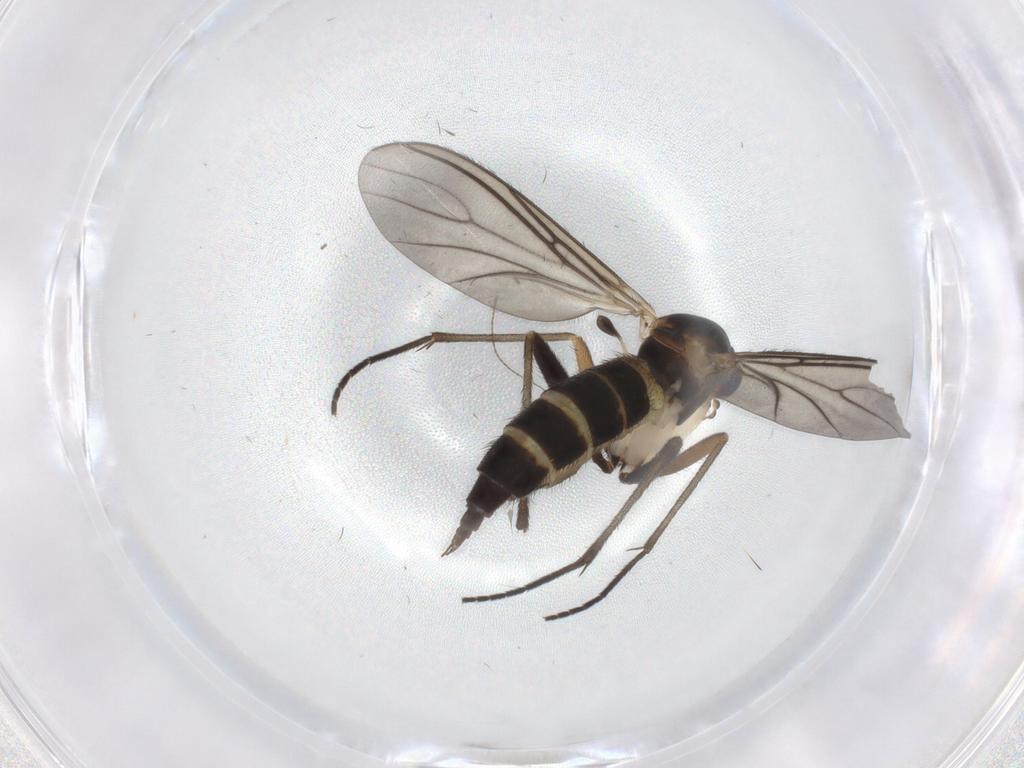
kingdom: Animalia
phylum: Arthropoda
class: Insecta
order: Diptera
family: Sciaridae
